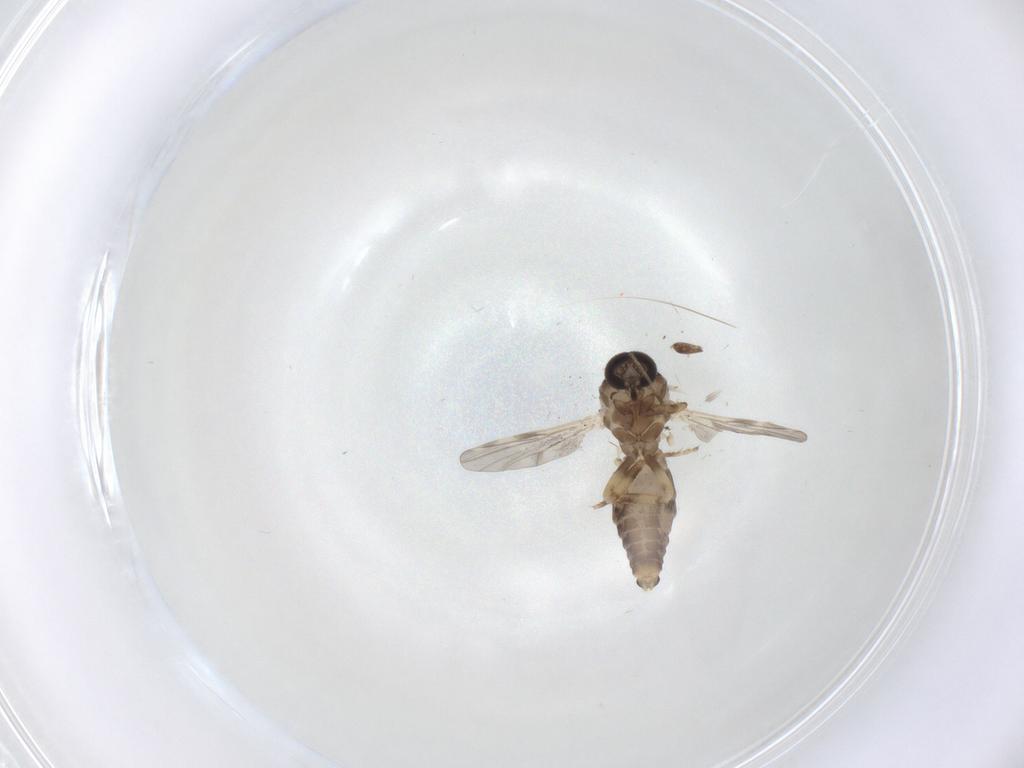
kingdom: Animalia
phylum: Arthropoda
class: Insecta
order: Diptera
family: Ceratopogonidae
